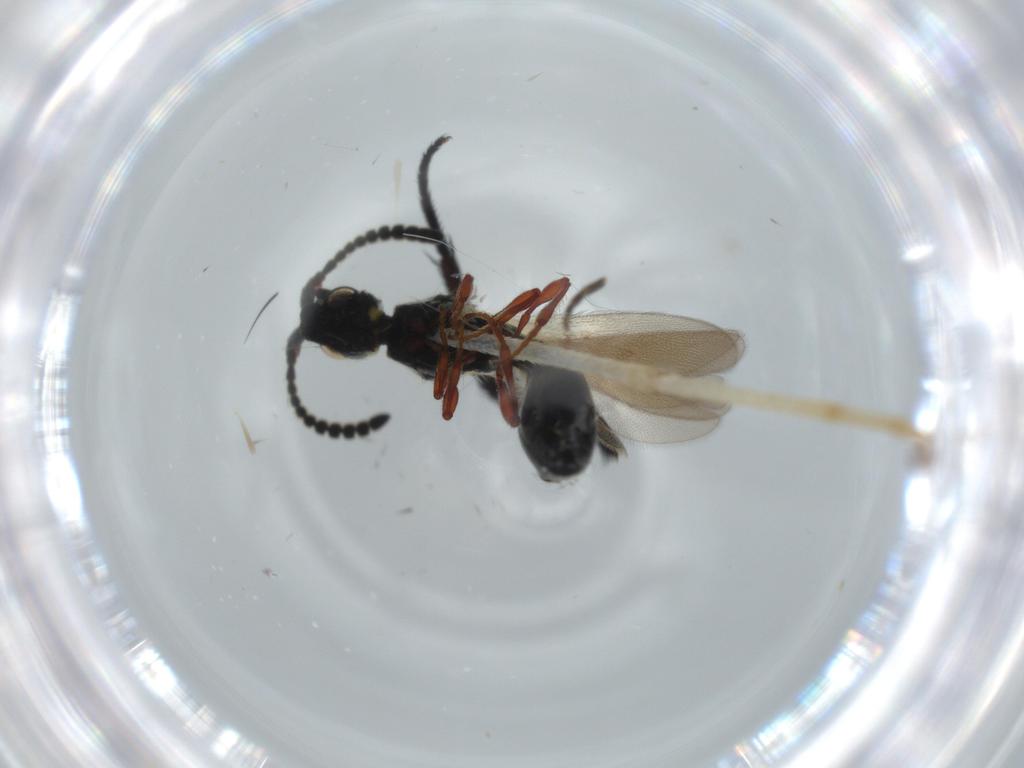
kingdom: Animalia
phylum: Arthropoda
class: Insecta
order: Hymenoptera
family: Diapriidae
